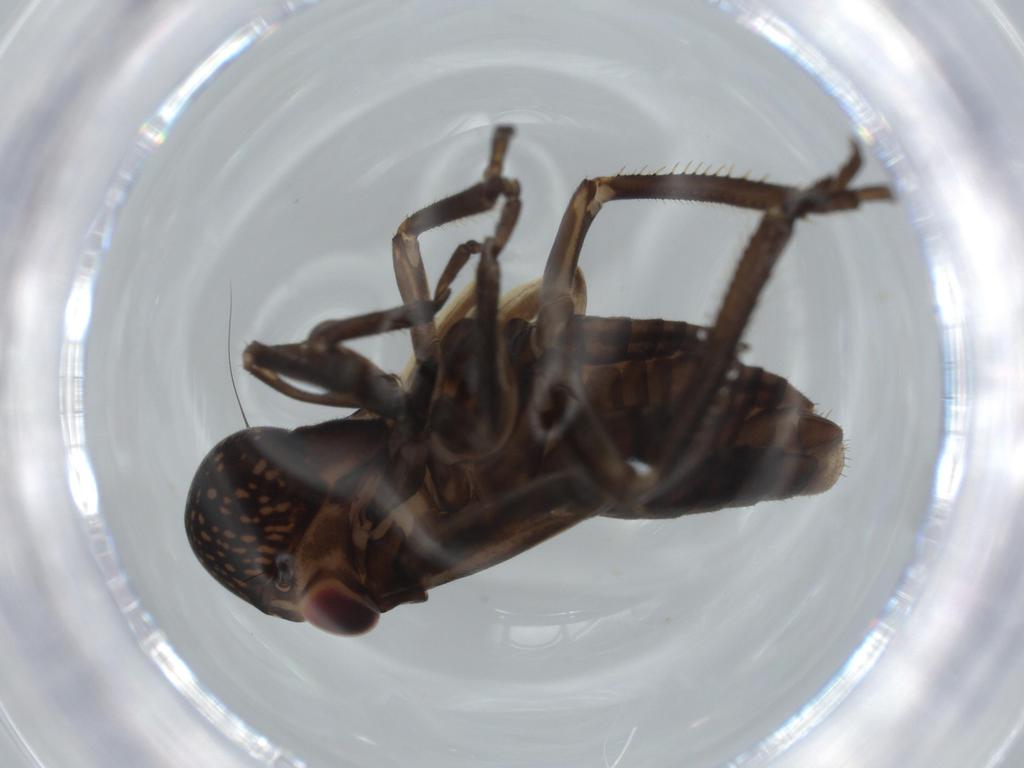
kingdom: Animalia
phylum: Arthropoda
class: Insecta
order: Hemiptera
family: Cicadellidae
